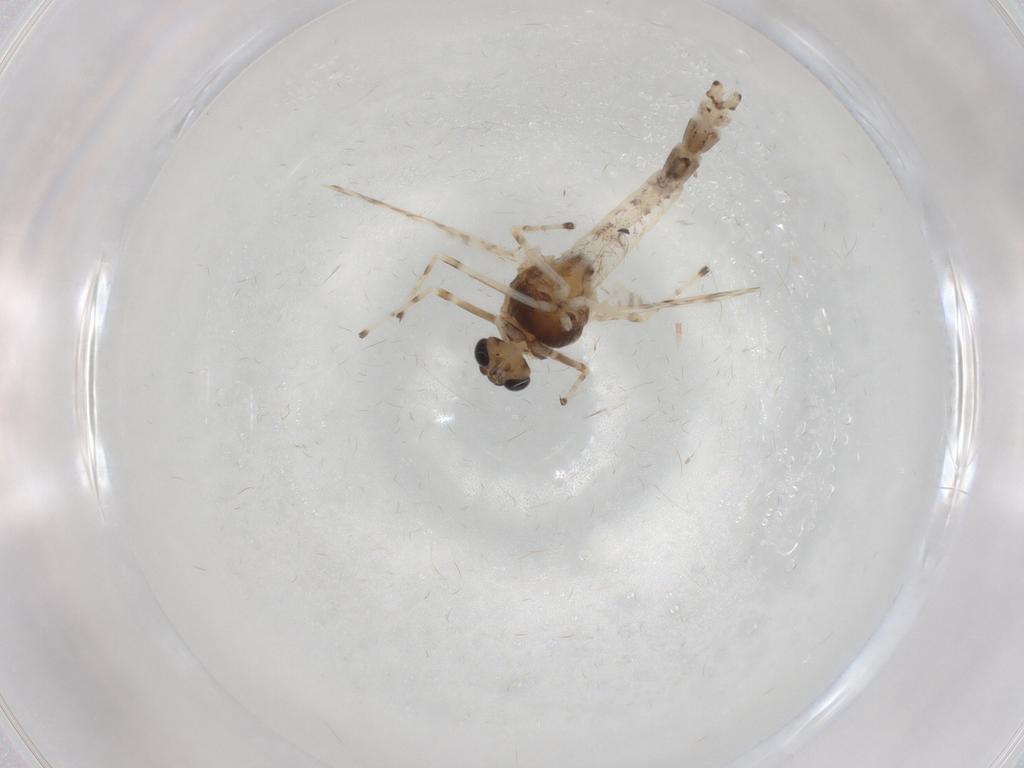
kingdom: Animalia
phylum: Arthropoda
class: Insecta
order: Diptera
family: Chironomidae
